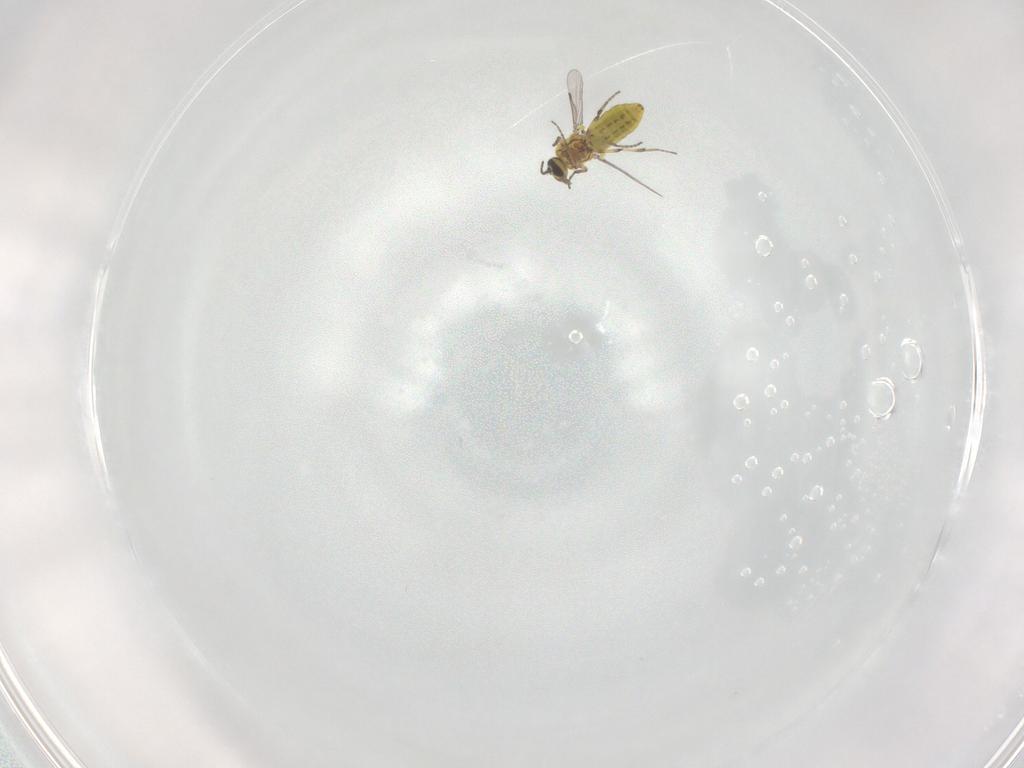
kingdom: Animalia
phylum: Arthropoda
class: Insecta
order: Diptera
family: Ceratopogonidae
